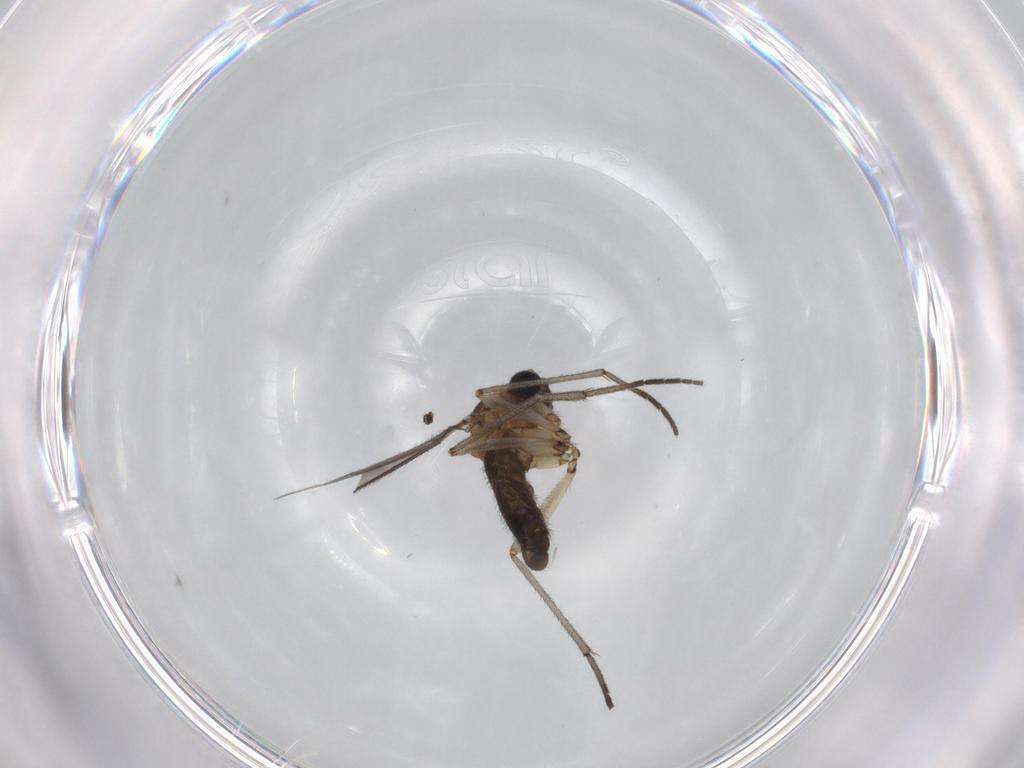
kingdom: Animalia
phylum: Arthropoda
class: Insecta
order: Diptera
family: Sciaridae
